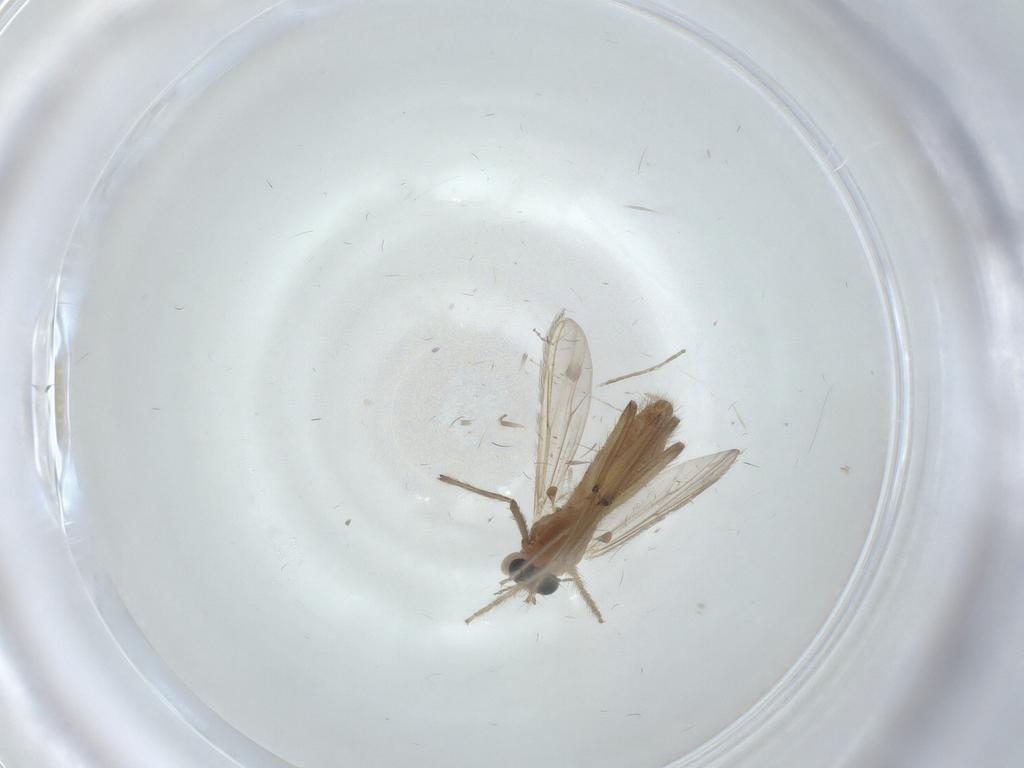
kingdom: Animalia
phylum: Arthropoda
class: Insecta
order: Diptera
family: Chironomidae
